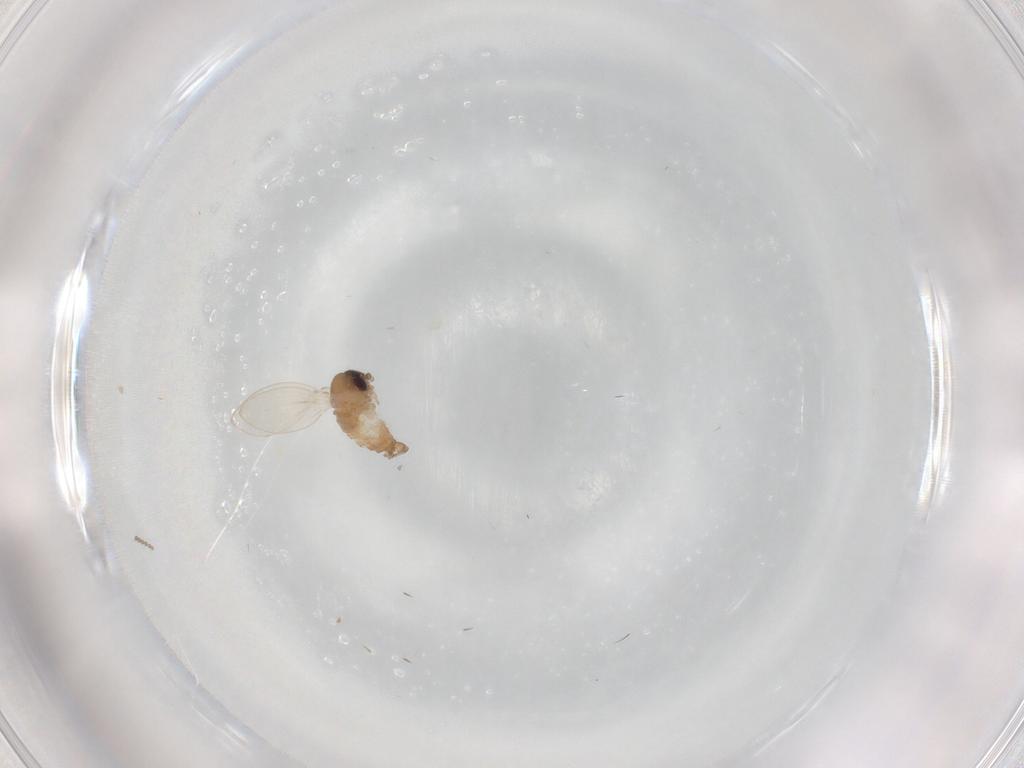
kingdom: Animalia
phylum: Arthropoda
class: Insecta
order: Diptera
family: Psychodidae
